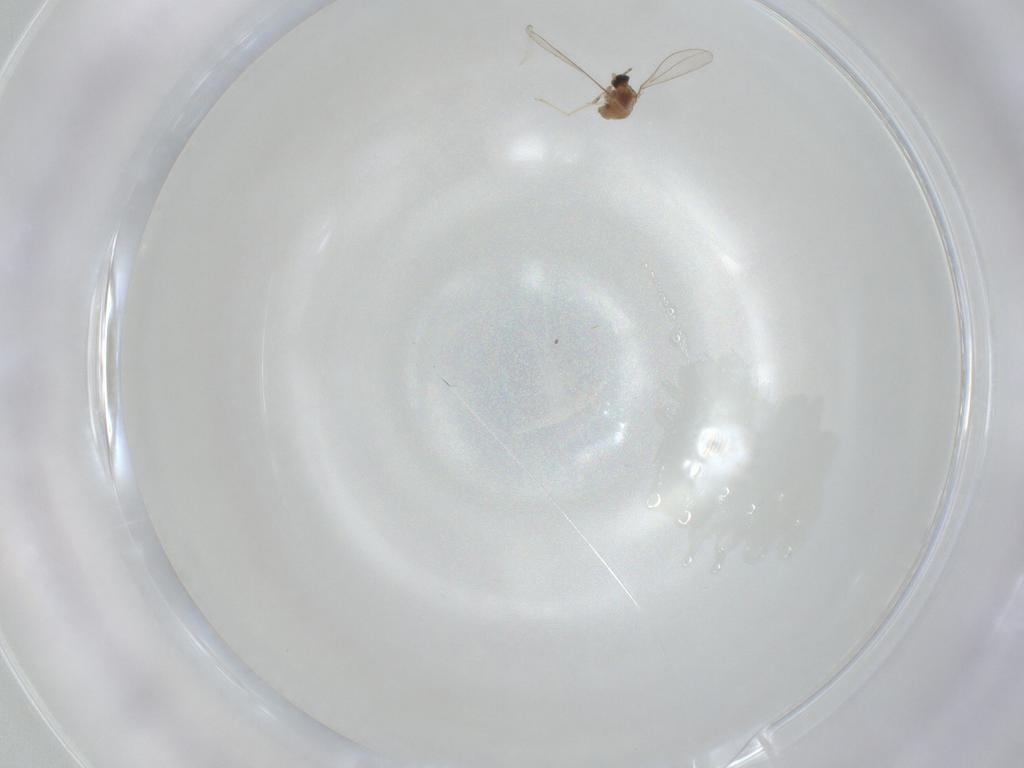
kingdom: Animalia
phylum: Arthropoda
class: Insecta
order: Diptera
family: Cecidomyiidae
